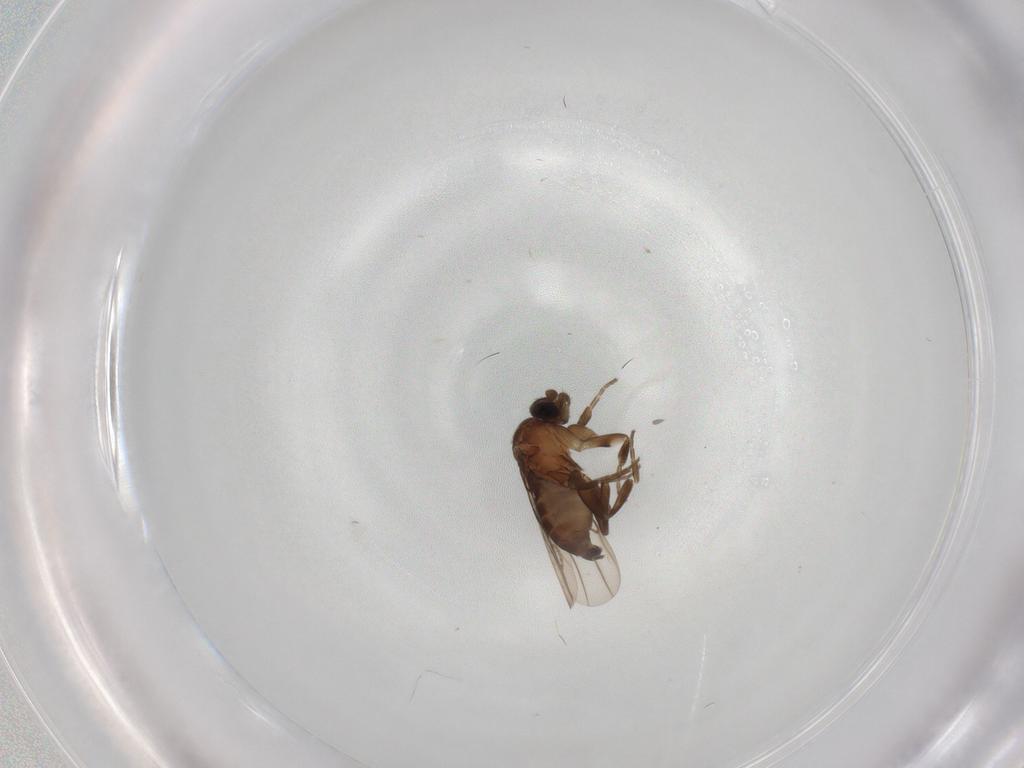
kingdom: Animalia
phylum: Arthropoda
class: Insecta
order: Diptera
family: Phoridae
